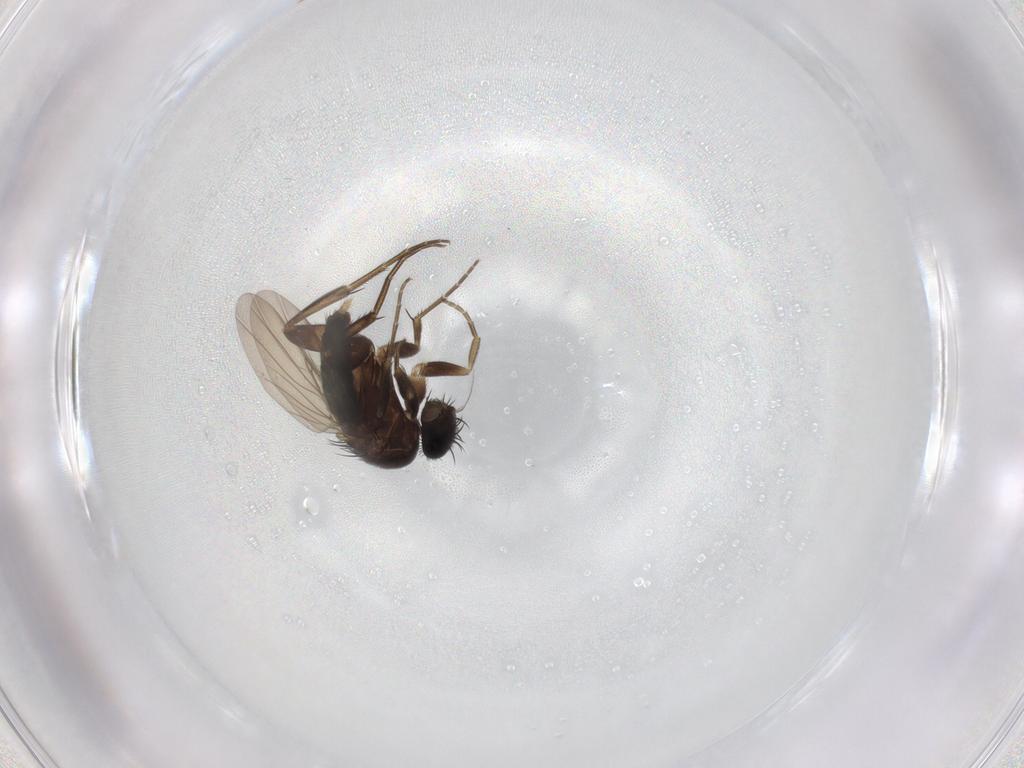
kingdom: Animalia
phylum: Arthropoda
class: Insecta
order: Diptera
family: Phoridae
